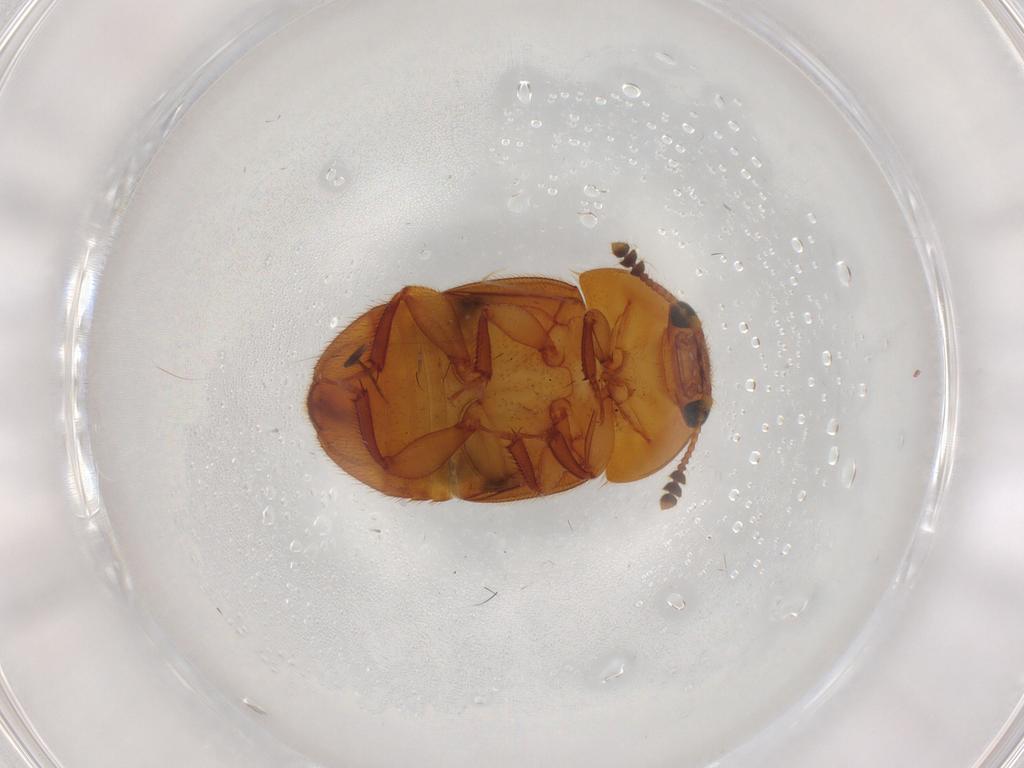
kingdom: Animalia
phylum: Arthropoda
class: Insecta
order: Coleoptera
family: Nitidulidae
